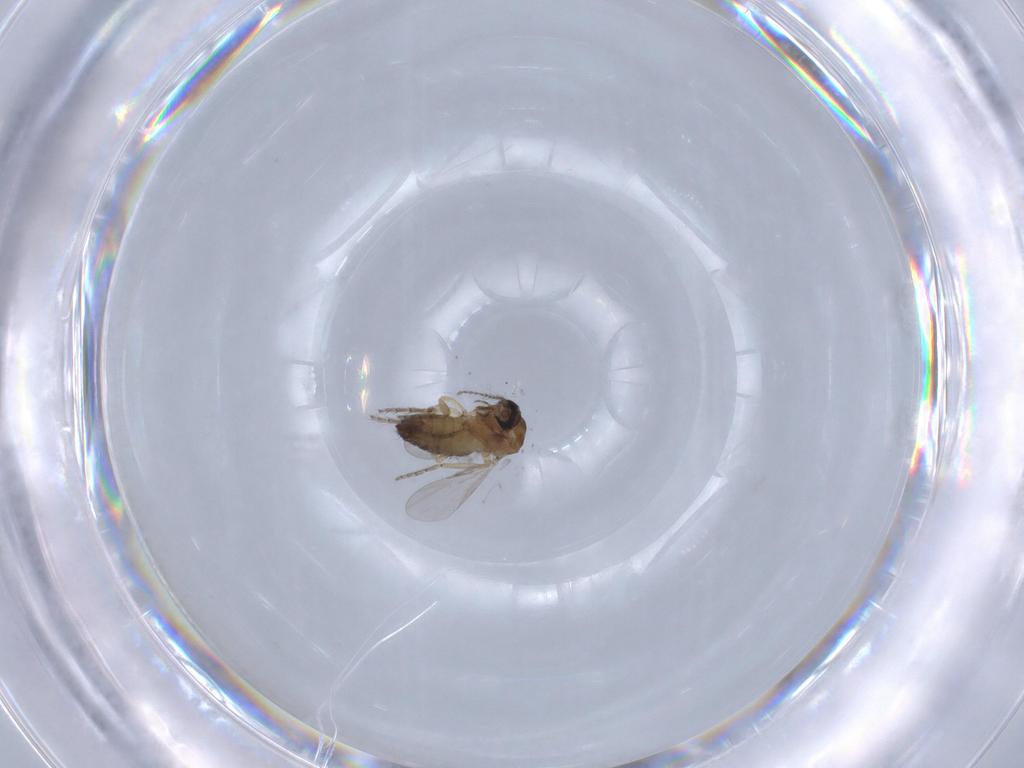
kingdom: Animalia
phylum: Arthropoda
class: Insecta
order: Diptera
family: Ceratopogonidae
